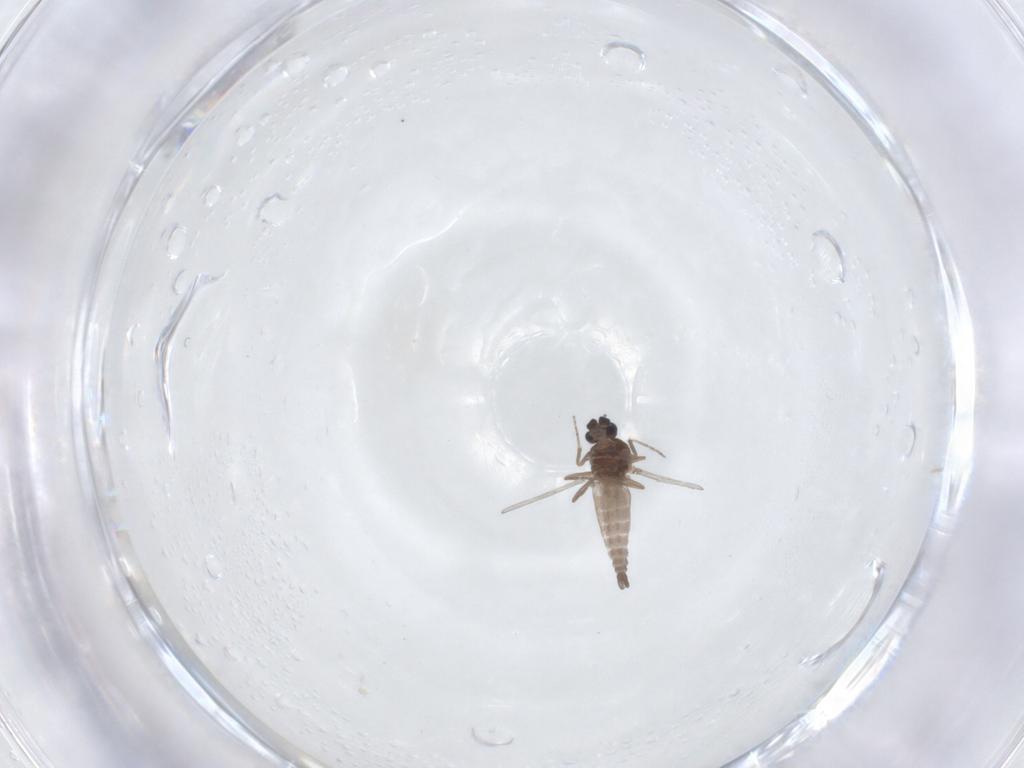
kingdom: Animalia
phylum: Arthropoda
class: Insecta
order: Diptera
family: Ceratopogonidae
